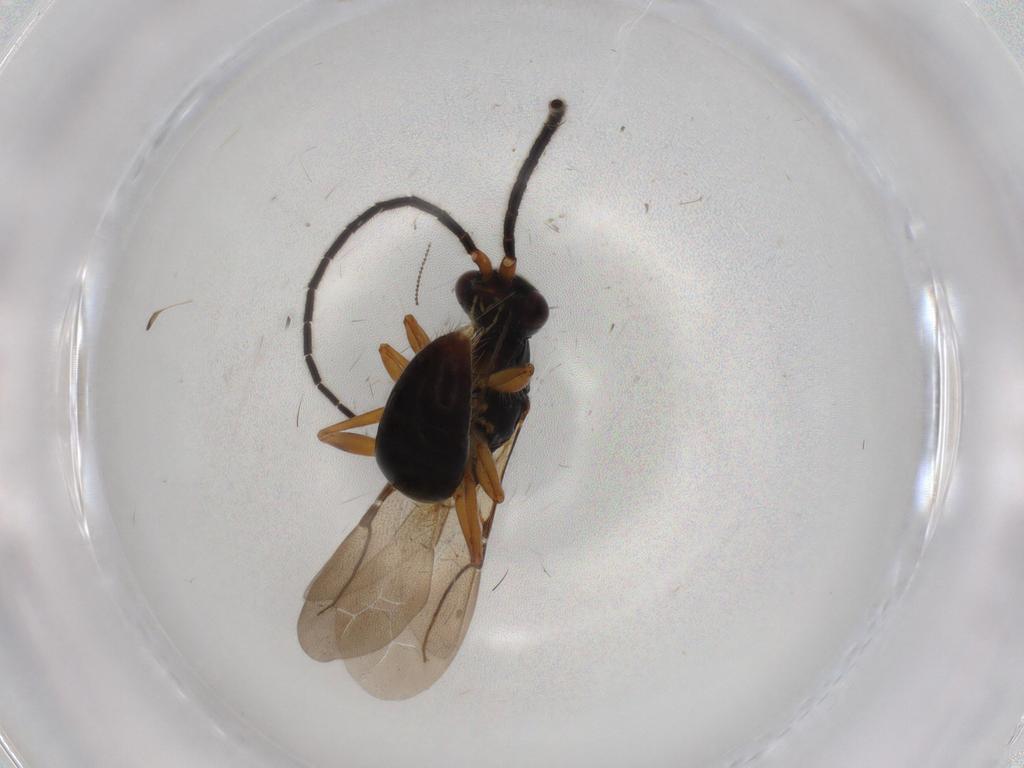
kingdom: Animalia
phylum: Arthropoda
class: Insecta
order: Hymenoptera
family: Bethylidae
